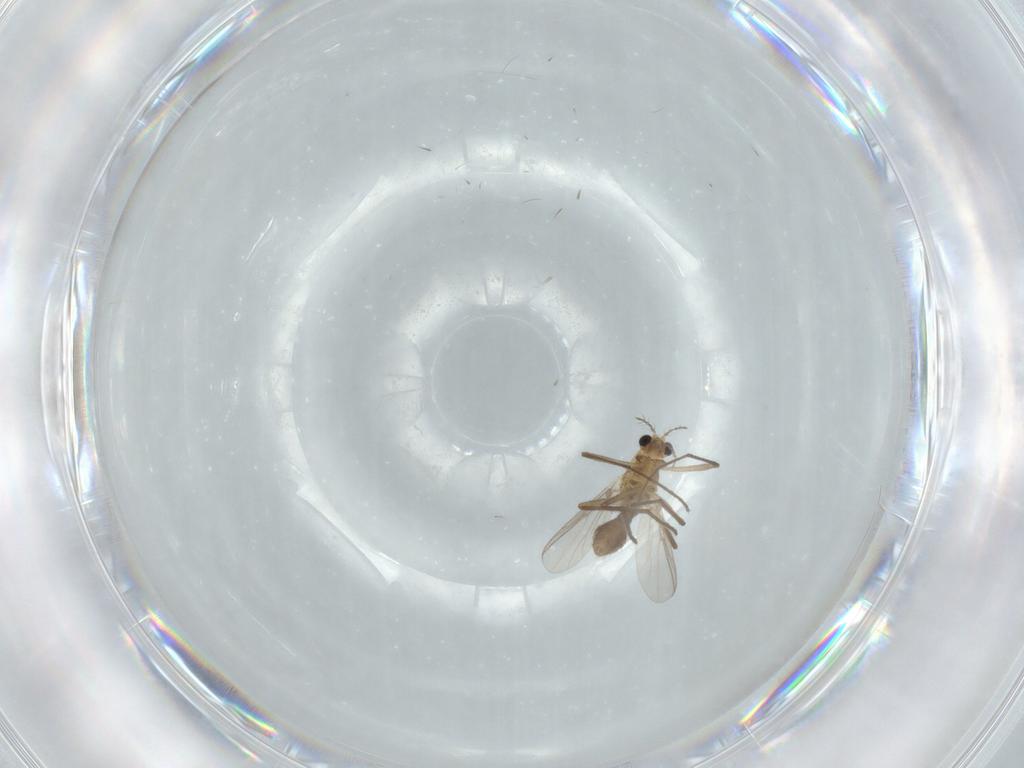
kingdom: Animalia
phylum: Arthropoda
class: Insecta
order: Diptera
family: Chironomidae
